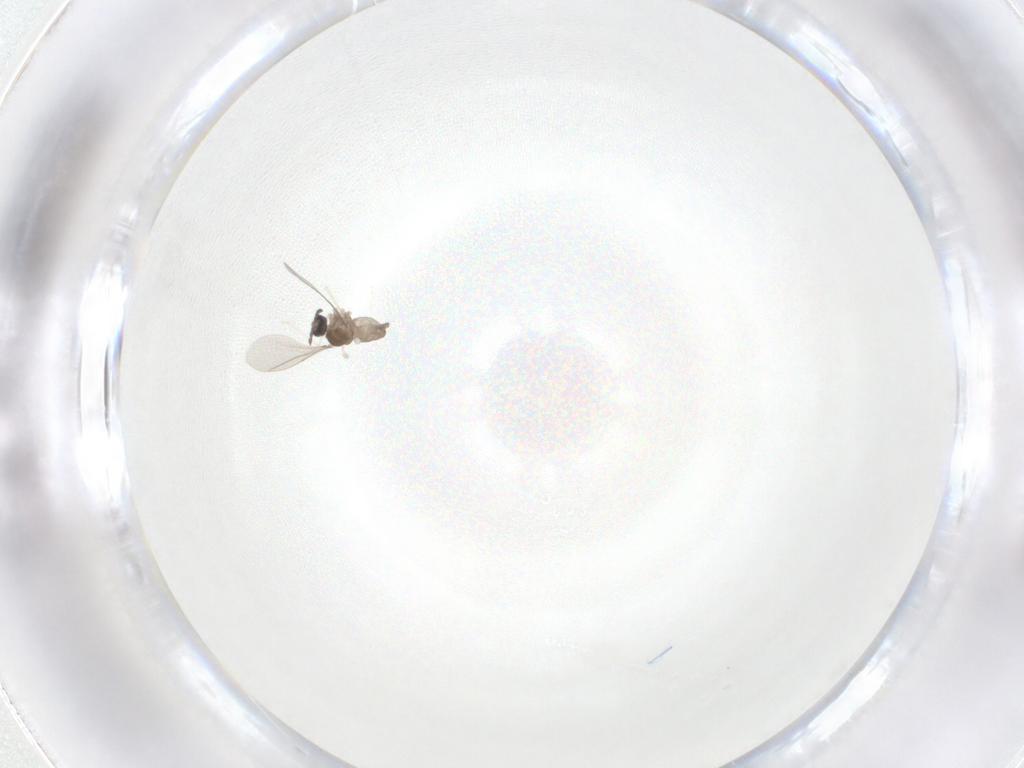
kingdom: Animalia
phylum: Arthropoda
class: Insecta
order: Diptera
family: Cecidomyiidae
